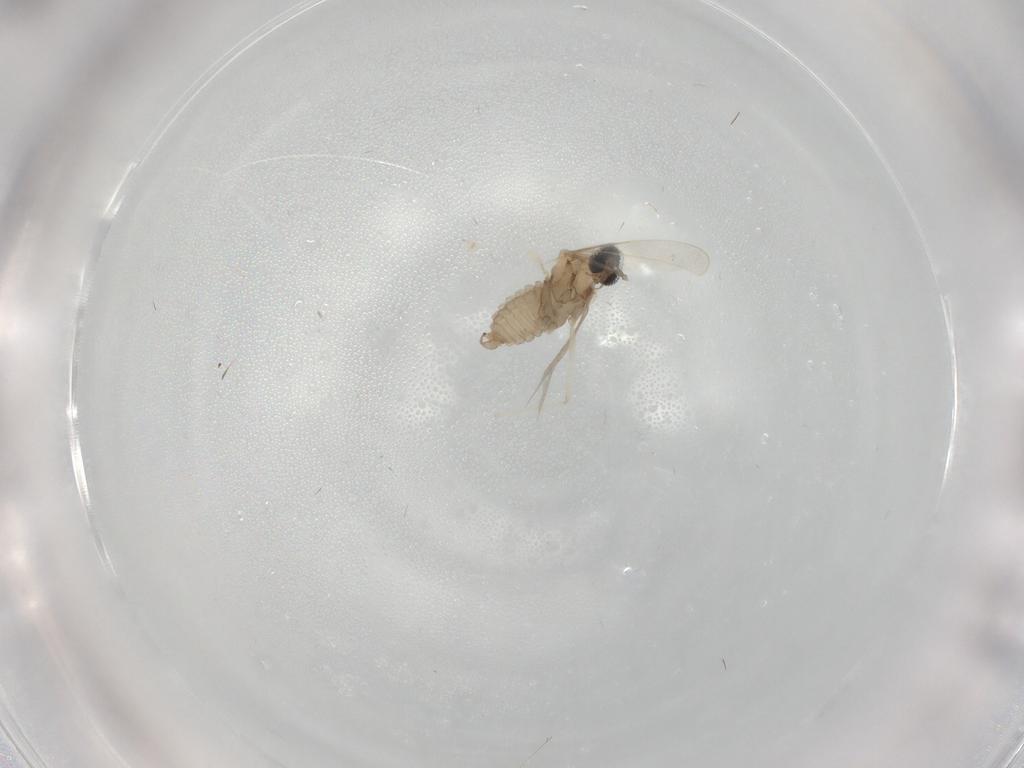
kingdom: Animalia
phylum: Arthropoda
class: Insecta
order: Diptera
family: Cecidomyiidae
